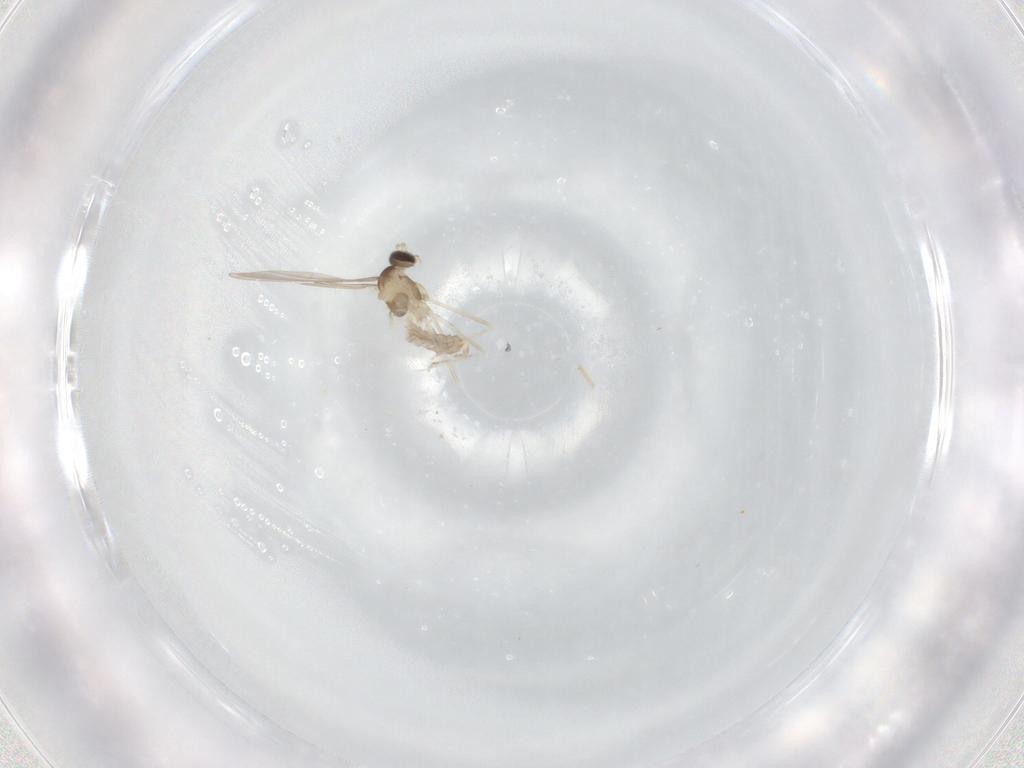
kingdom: Animalia
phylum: Arthropoda
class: Insecta
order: Diptera
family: Cecidomyiidae
